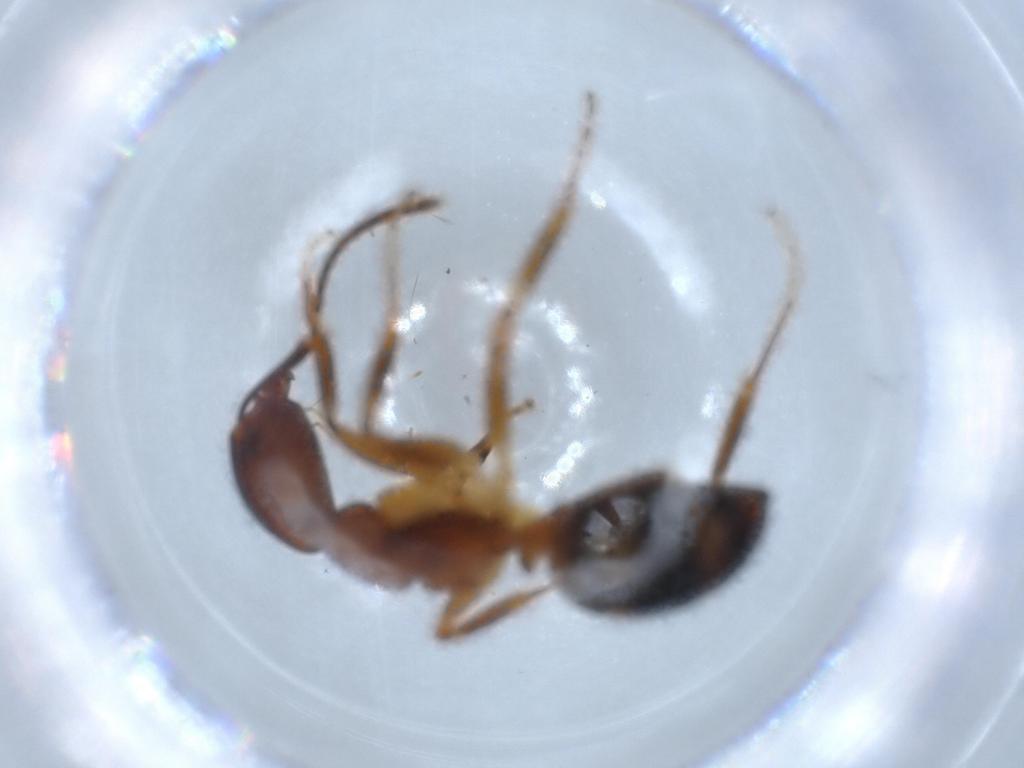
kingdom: Animalia
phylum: Arthropoda
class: Insecta
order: Hymenoptera
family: Formicidae
